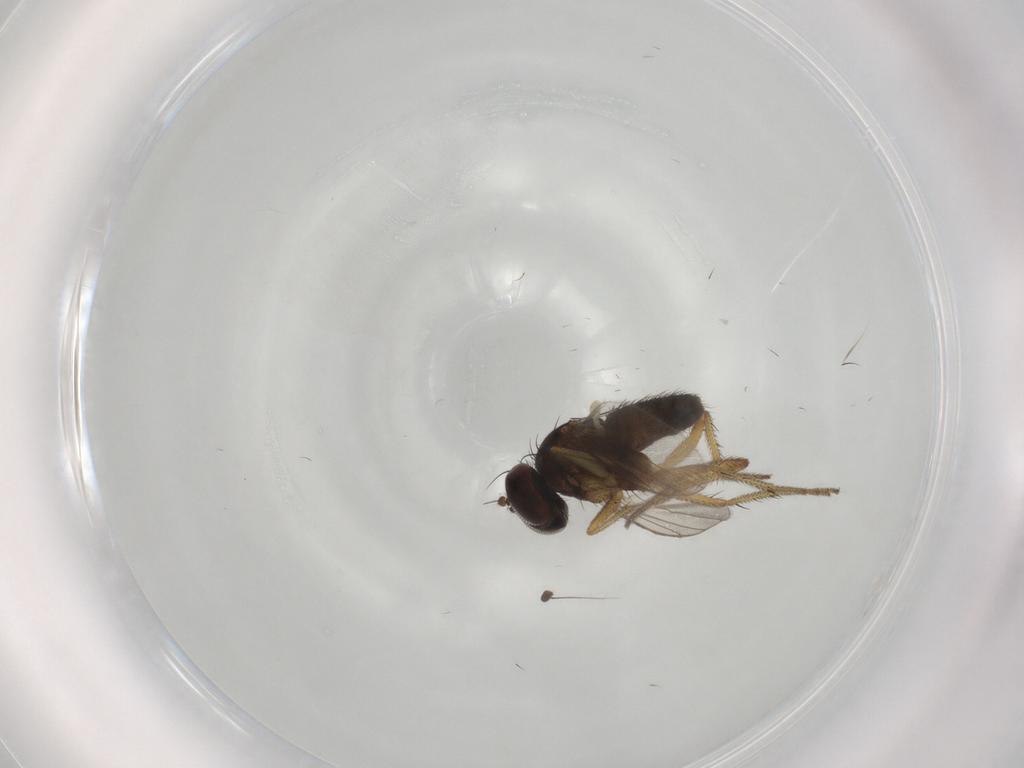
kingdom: Animalia
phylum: Arthropoda
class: Insecta
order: Diptera
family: Dolichopodidae
